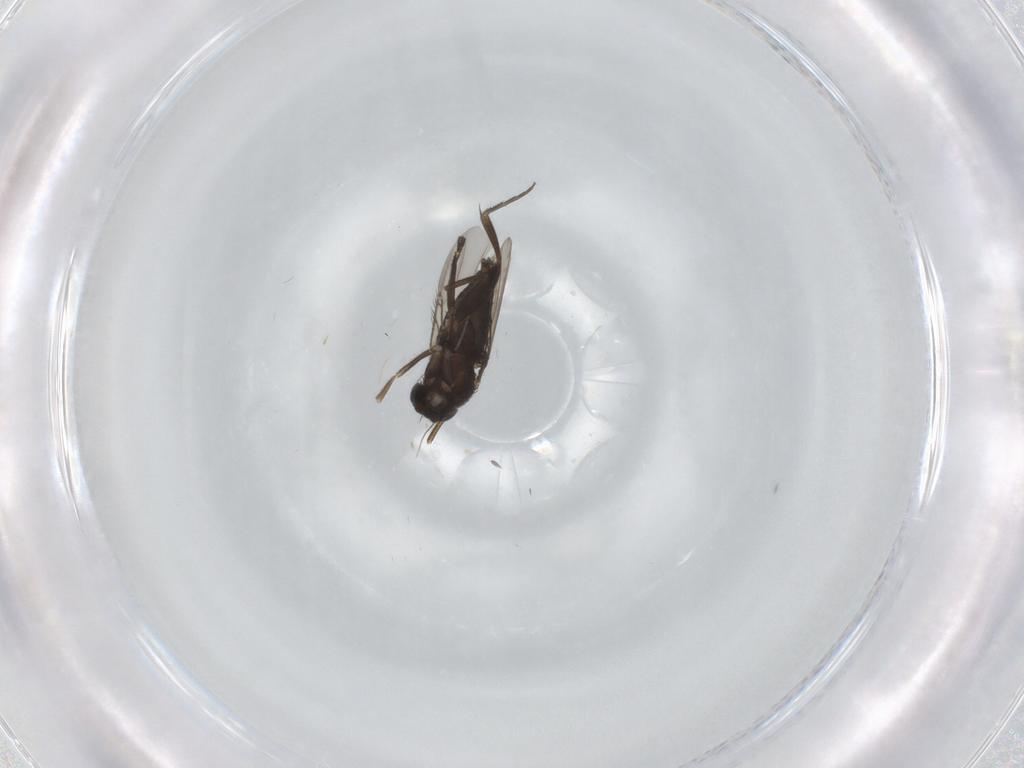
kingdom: Animalia
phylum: Arthropoda
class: Insecta
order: Diptera
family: Phoridae
